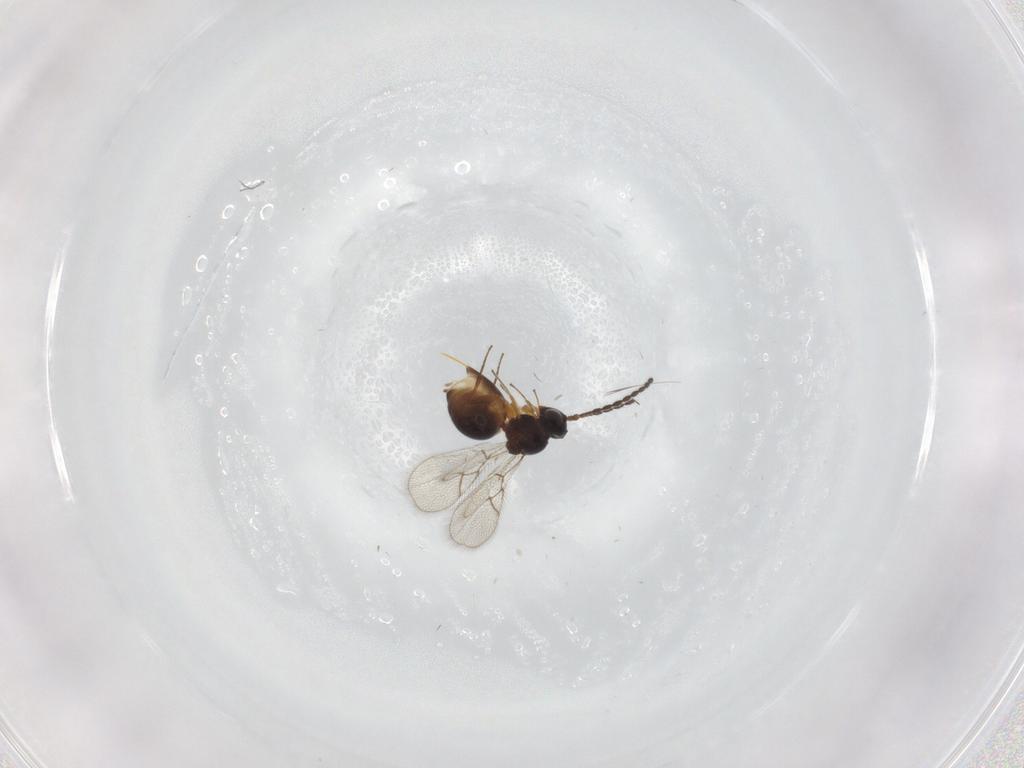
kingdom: Animalia
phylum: Arthropoda
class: Insecta
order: Hymenoptera
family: Figitidae
